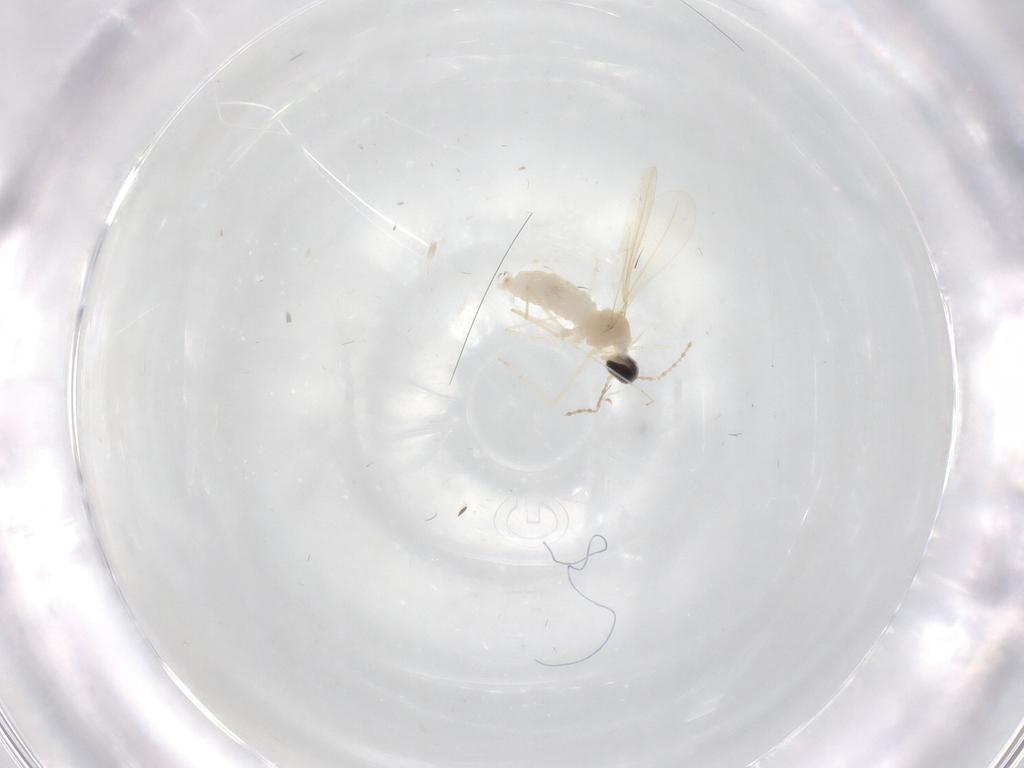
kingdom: Animalia
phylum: Arthropoda
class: Insecta
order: Diptera
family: Cecidomyiidae
